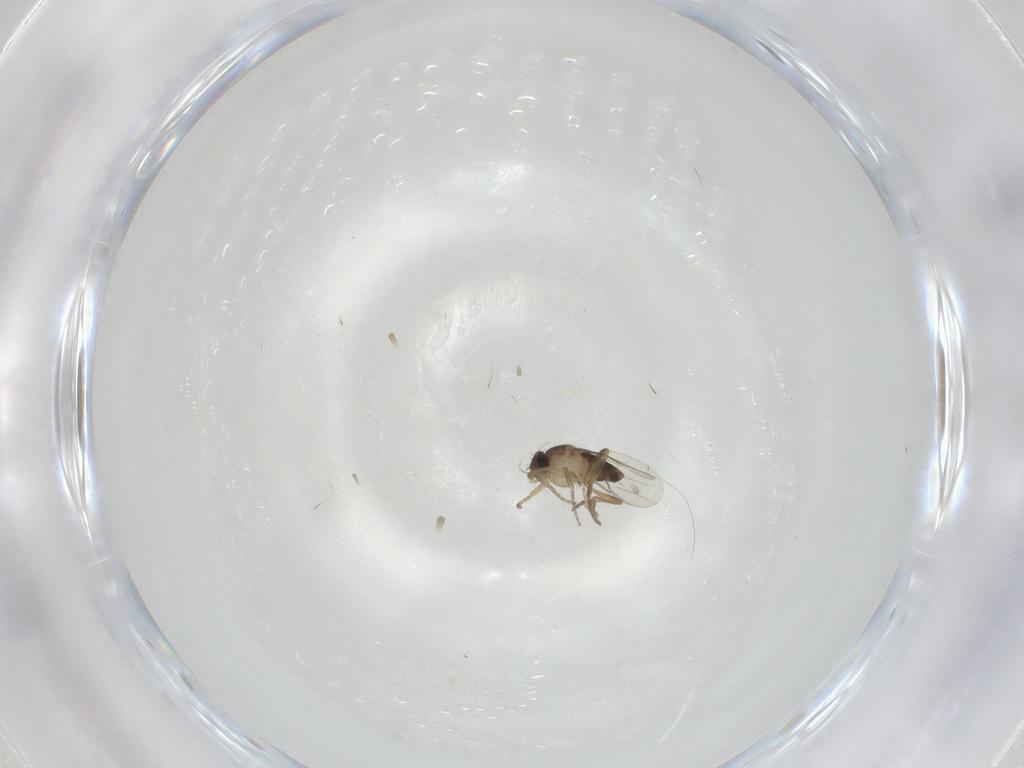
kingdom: Animalia
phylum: Arthropoda
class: Insecta
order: Diptera
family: Phoridae
